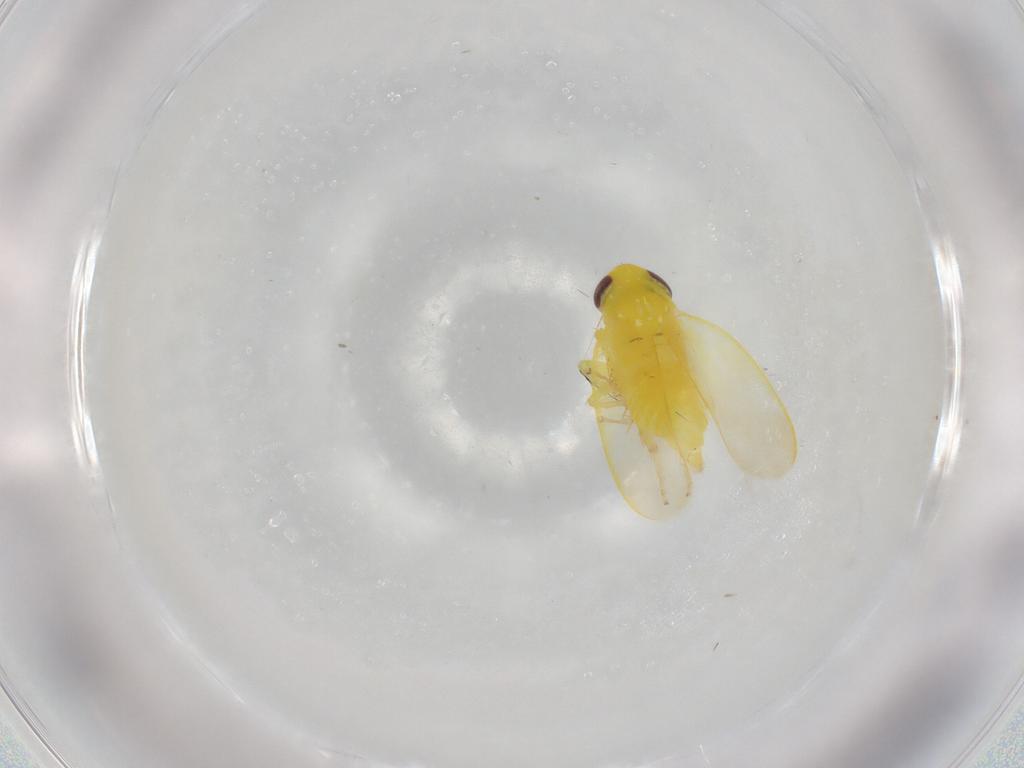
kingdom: Animalia
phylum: Arthropoda
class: Insecta
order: Hemiptera
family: Cicadellidae
